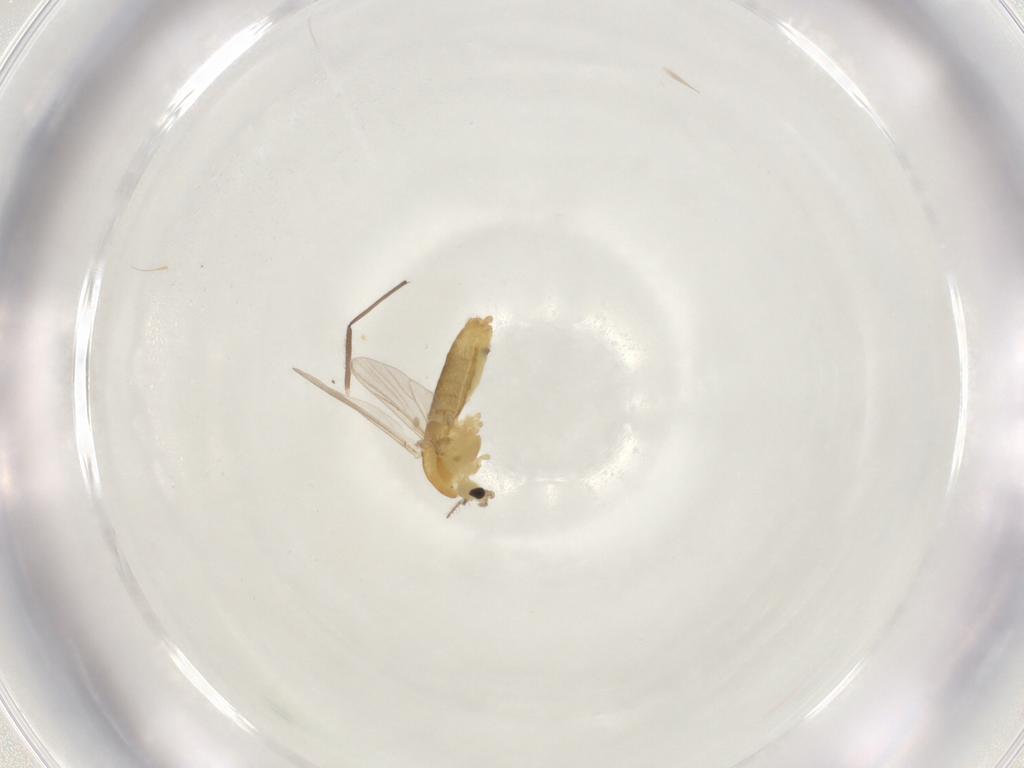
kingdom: Animalia
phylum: Arthropoda
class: Insecta
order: Diptera
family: Chironomidae
